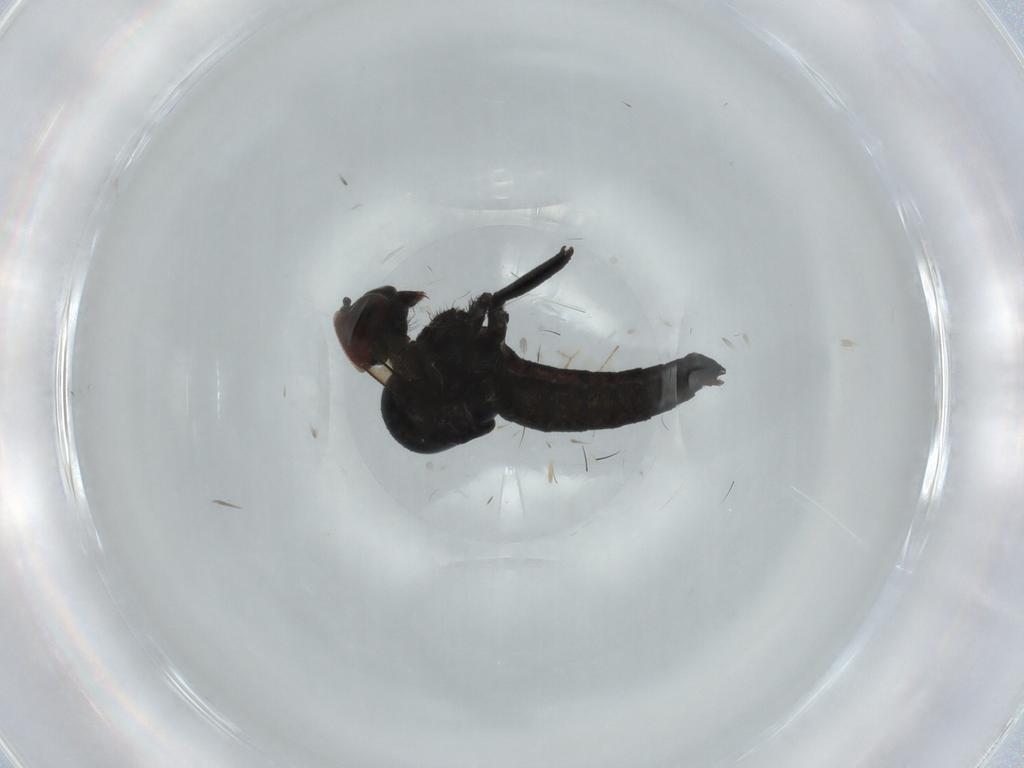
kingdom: Animalia
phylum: Arthropoda
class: Insecta
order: Diptera
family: Hybotidae
